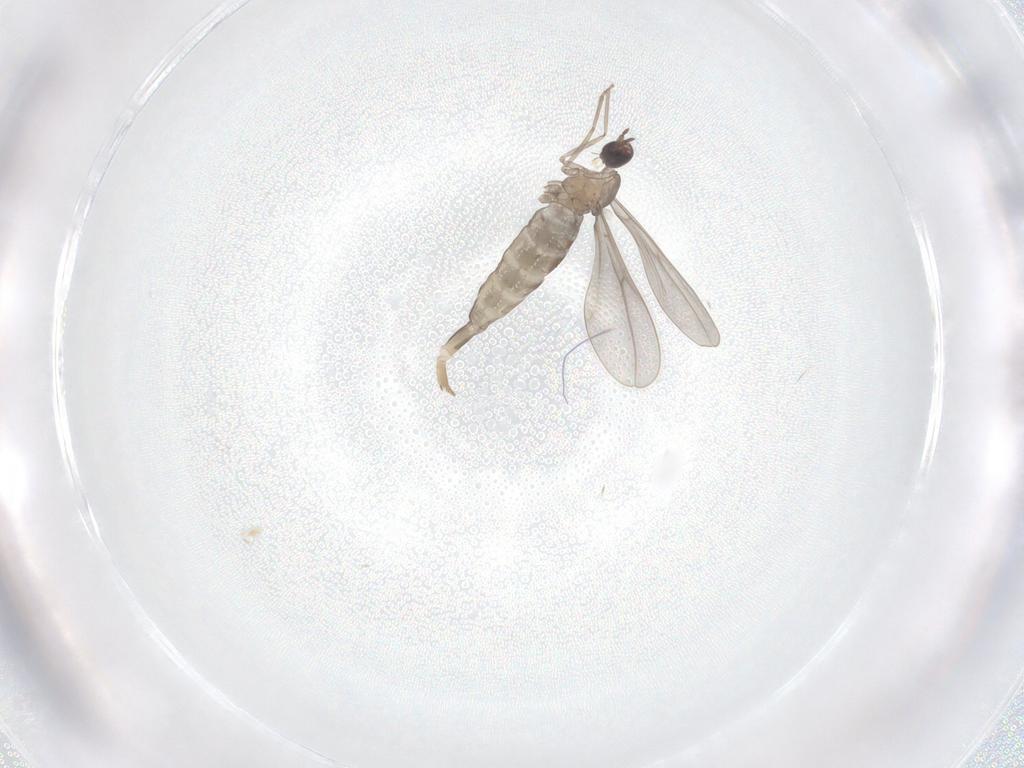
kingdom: Animalia
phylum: Arthropoda
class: Insecta
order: Diptera
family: Cecidomyiidae
